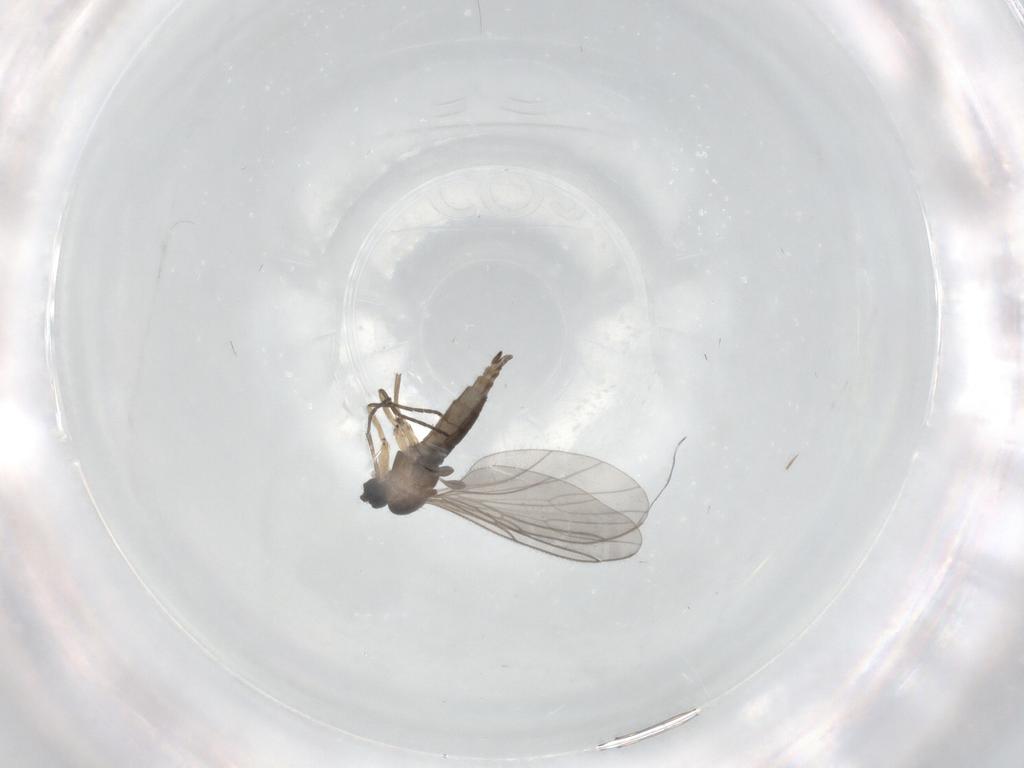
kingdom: Animalia
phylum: Arthropoda
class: Insecta
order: Diptera
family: Sciaridae
